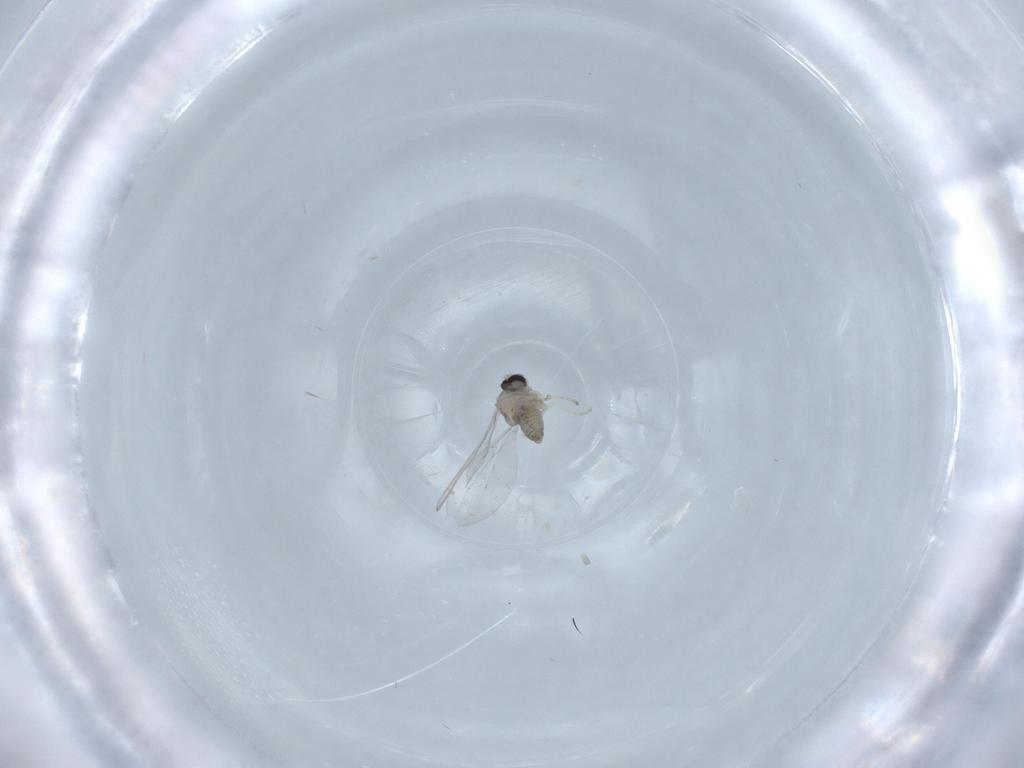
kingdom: Animalia
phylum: Arthropoda
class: Insecta
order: Diptera
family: Cecidomyiidae
